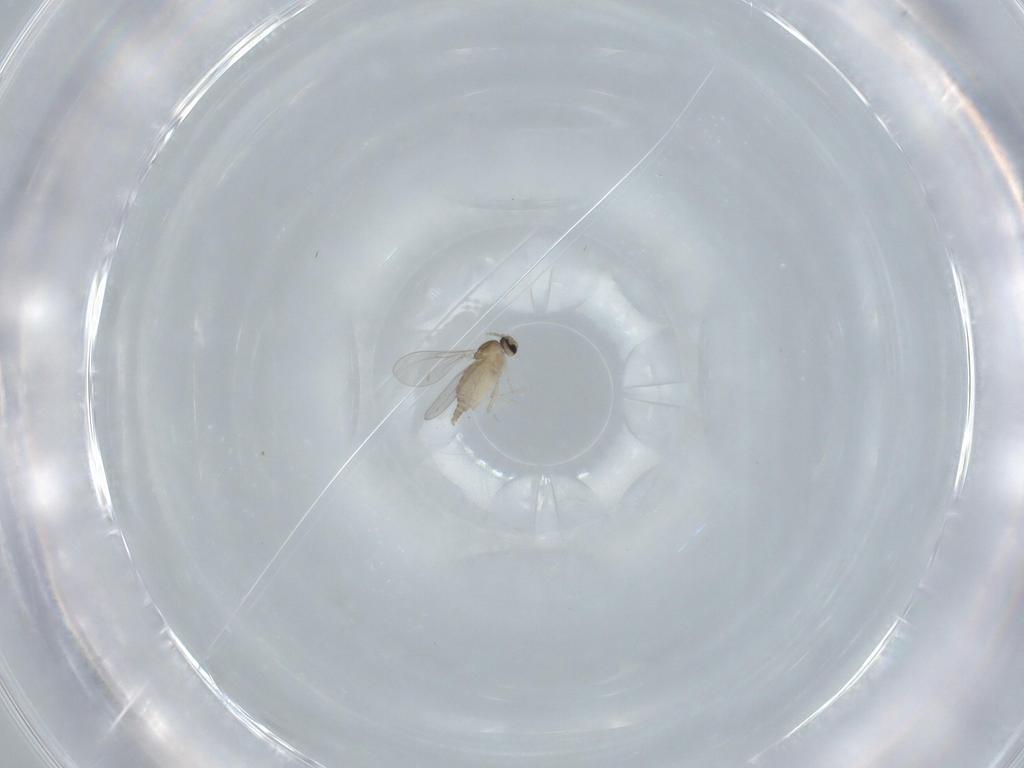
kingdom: Animalia
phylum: Arthropoda
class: Insecta
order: Diptera
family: Cecidomyiidae
